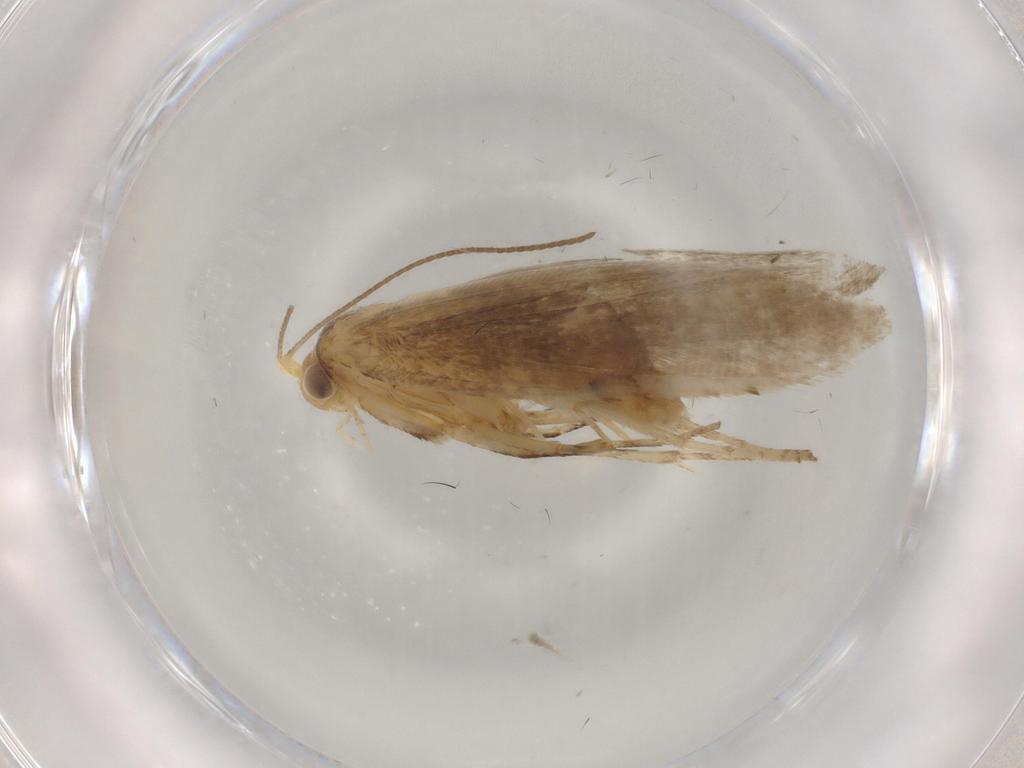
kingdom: Animalia
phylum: Arthropoda
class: Insecta
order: Lepidoptera
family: Argyresthiidae
